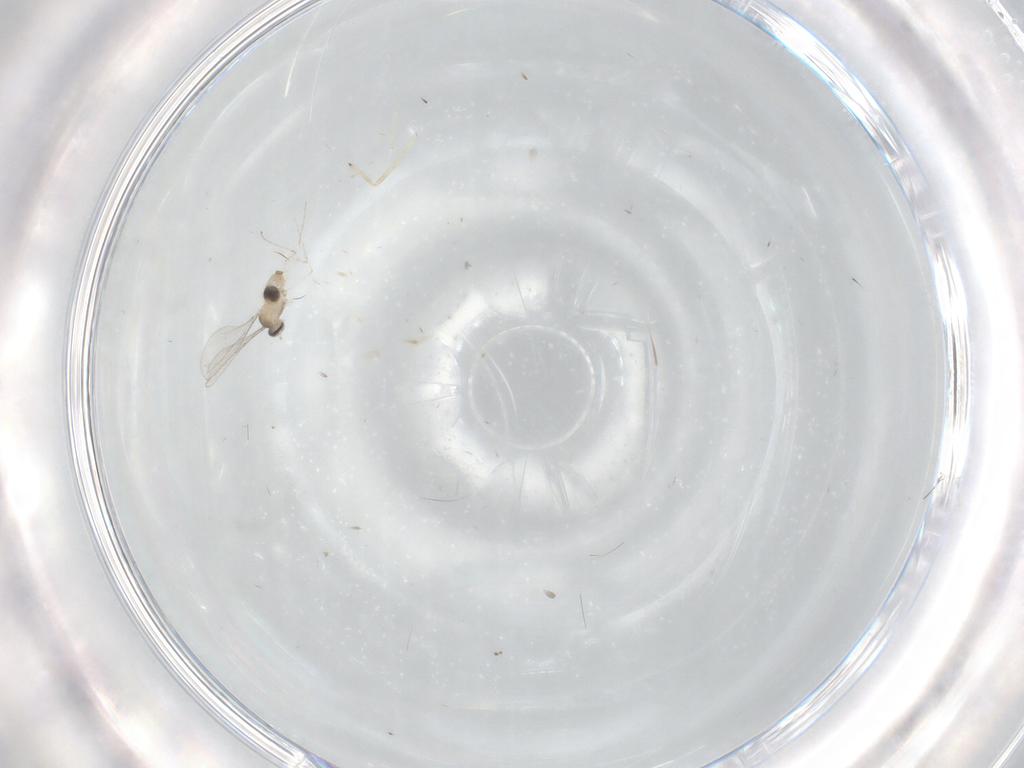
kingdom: Animalia
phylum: Arthropoda
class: Insecta
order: Diptera
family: Cecidomyiidae
